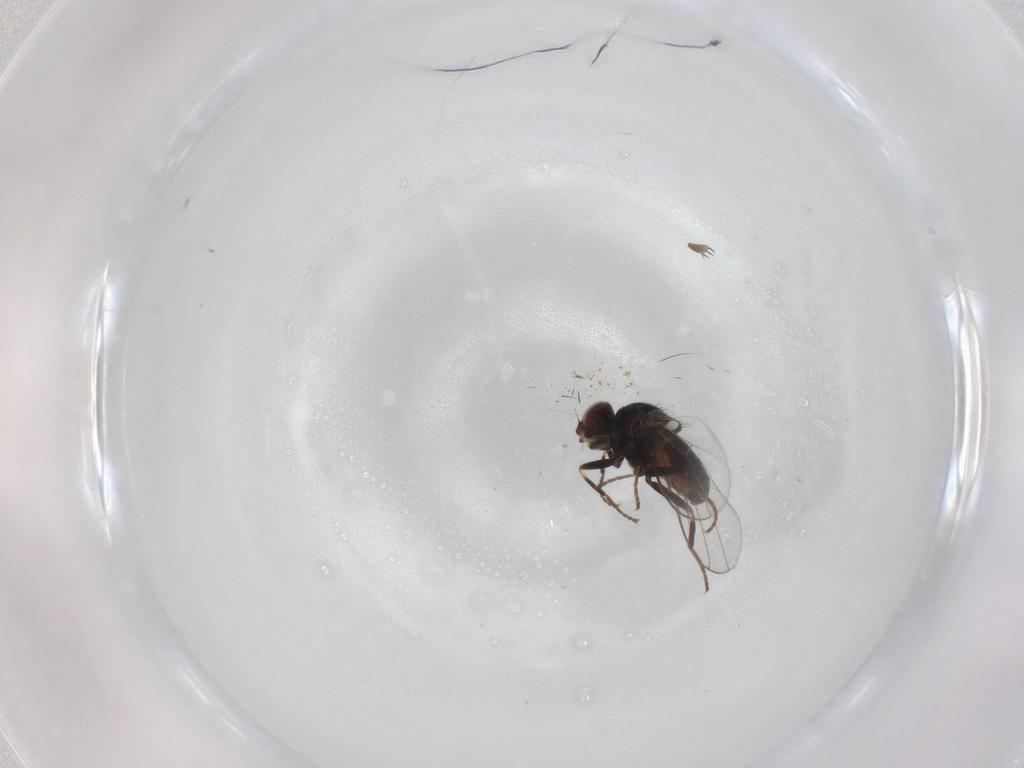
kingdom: Animalia
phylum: Arthropoda
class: Insecta
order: Diptera
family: Chloropidae
